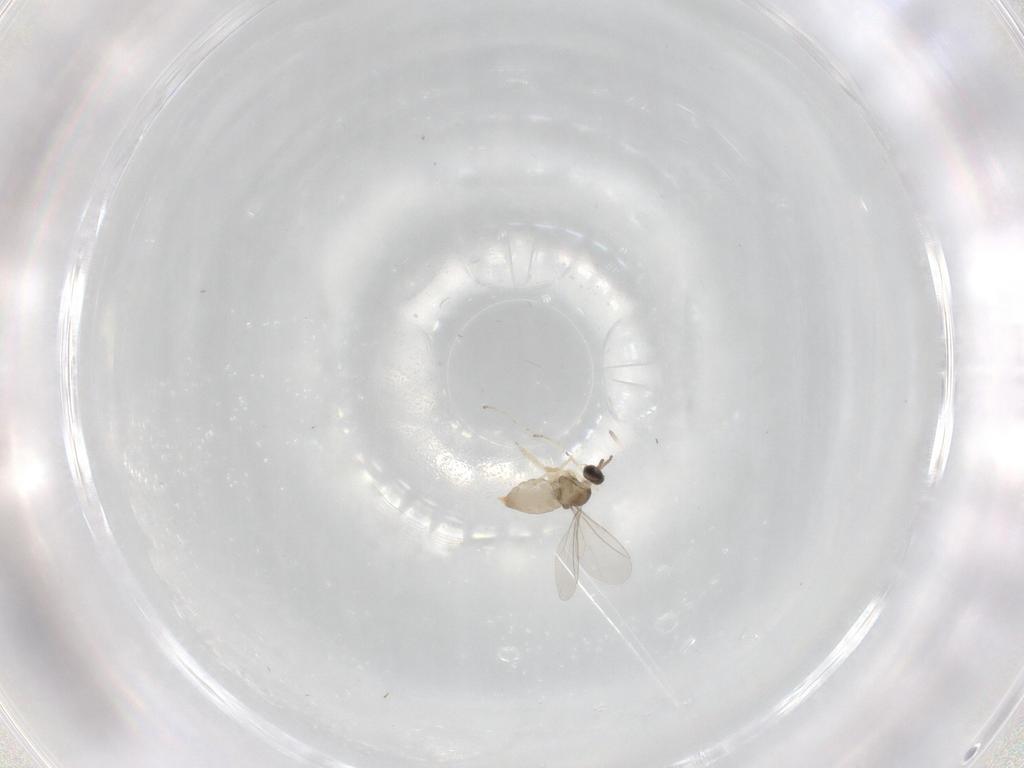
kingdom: Animalia
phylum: Arthropoda
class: Insecta
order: Diptera
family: Cecidomyiidae
